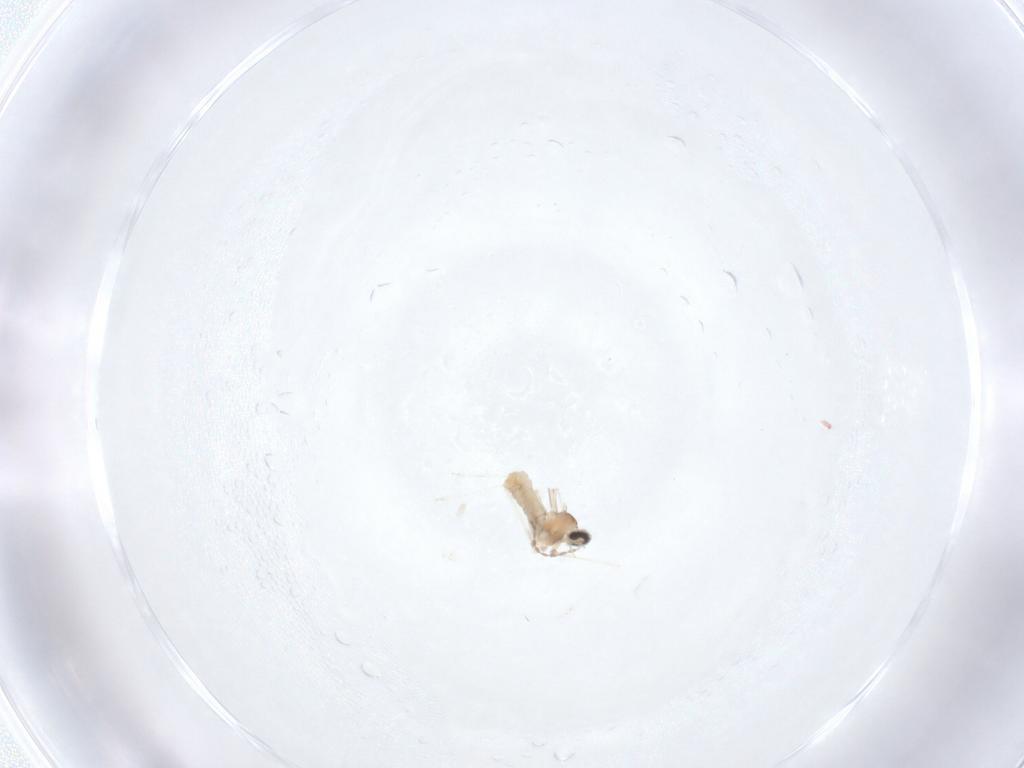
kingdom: Animalia
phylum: Arthropoda
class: Insecta
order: Diptera
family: Cecidomyiidae
